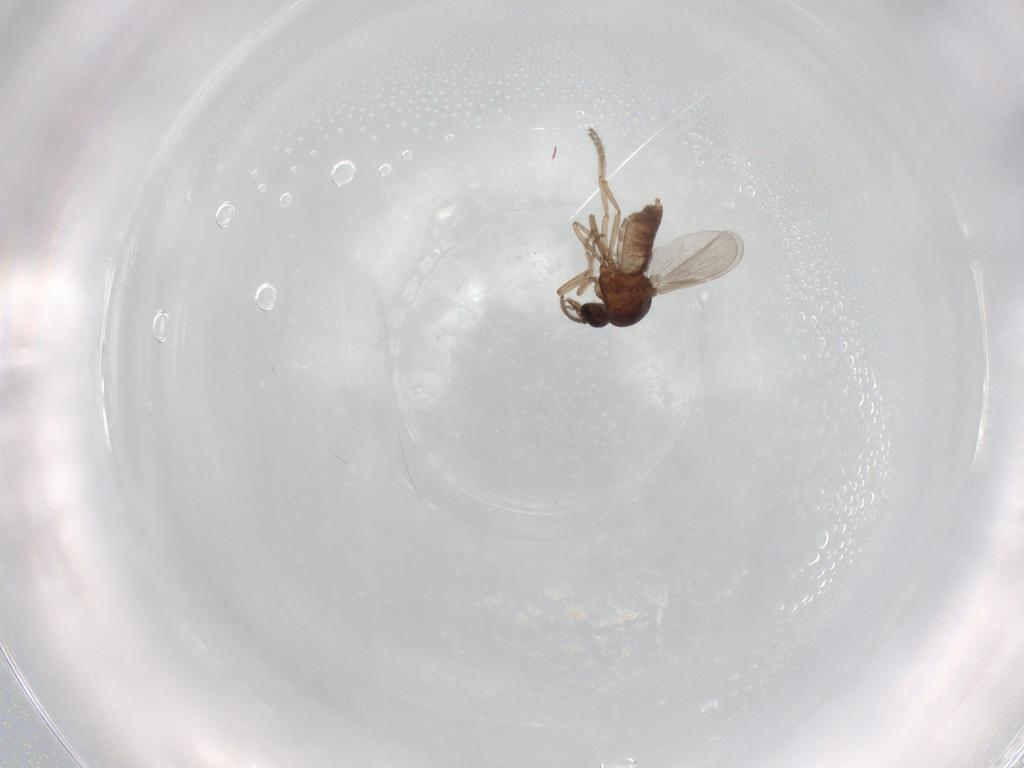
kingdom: Animalia
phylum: Arthropoda
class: Insecta
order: Diptera
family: Ceratopogonidae
